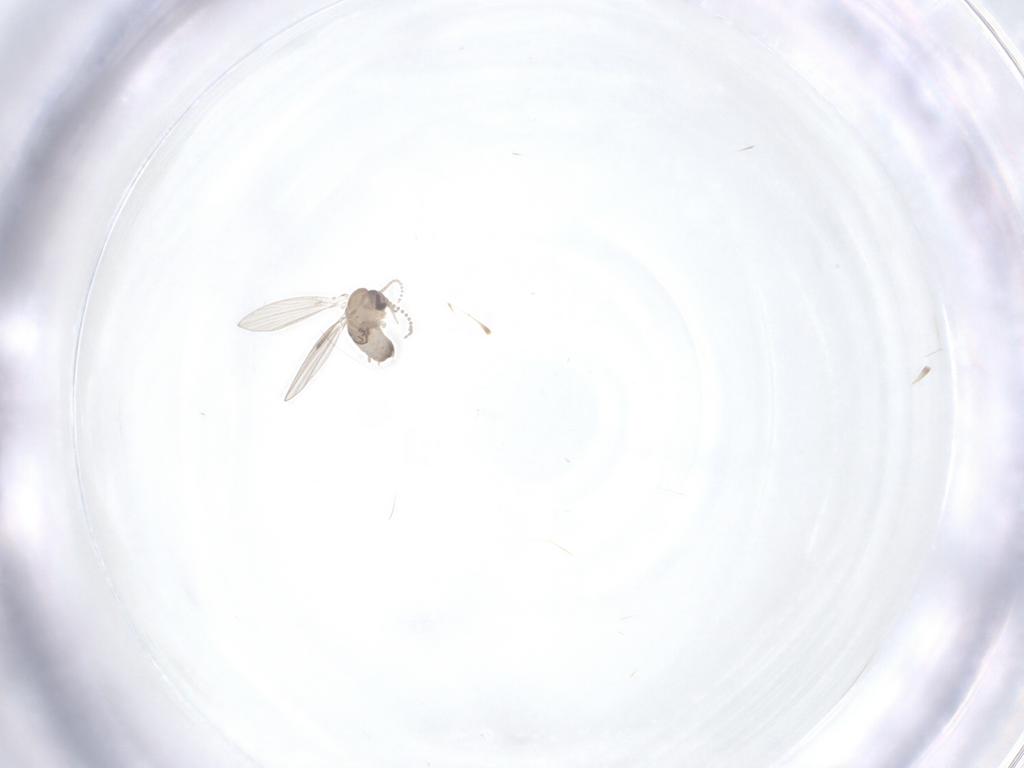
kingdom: Animalia
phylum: Arthropoda
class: Insecta
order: Diptera
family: Psychodidae
